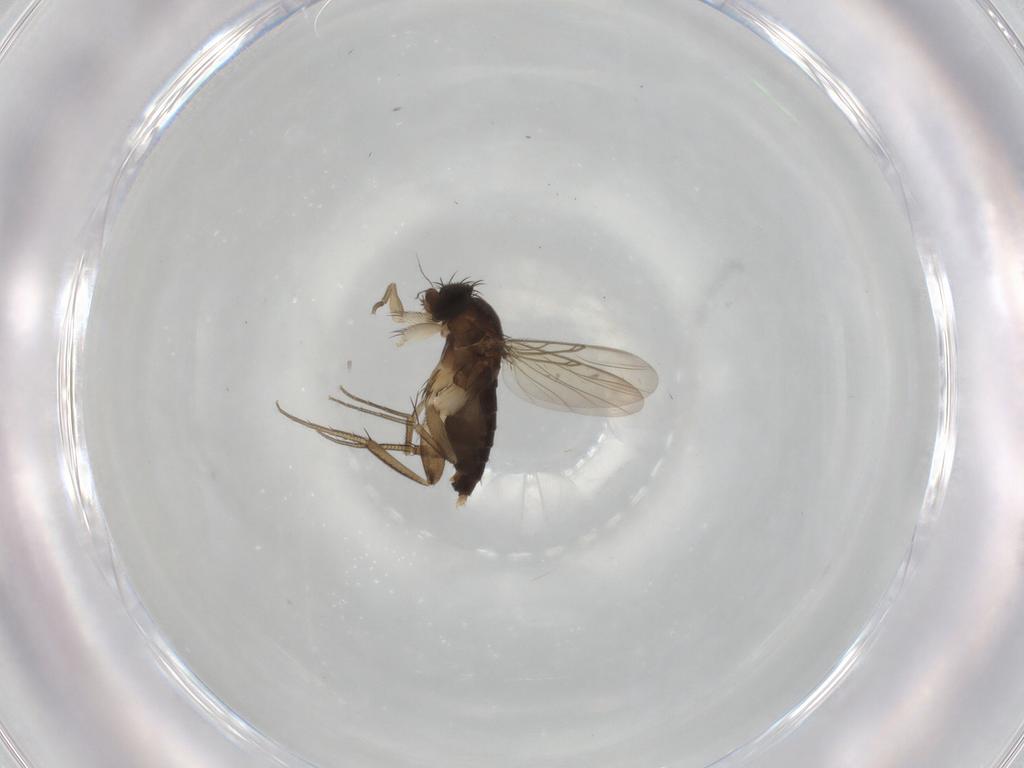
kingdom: Animalia
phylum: Arthropoda
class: Insecta
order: Diptera
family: Phoridae
